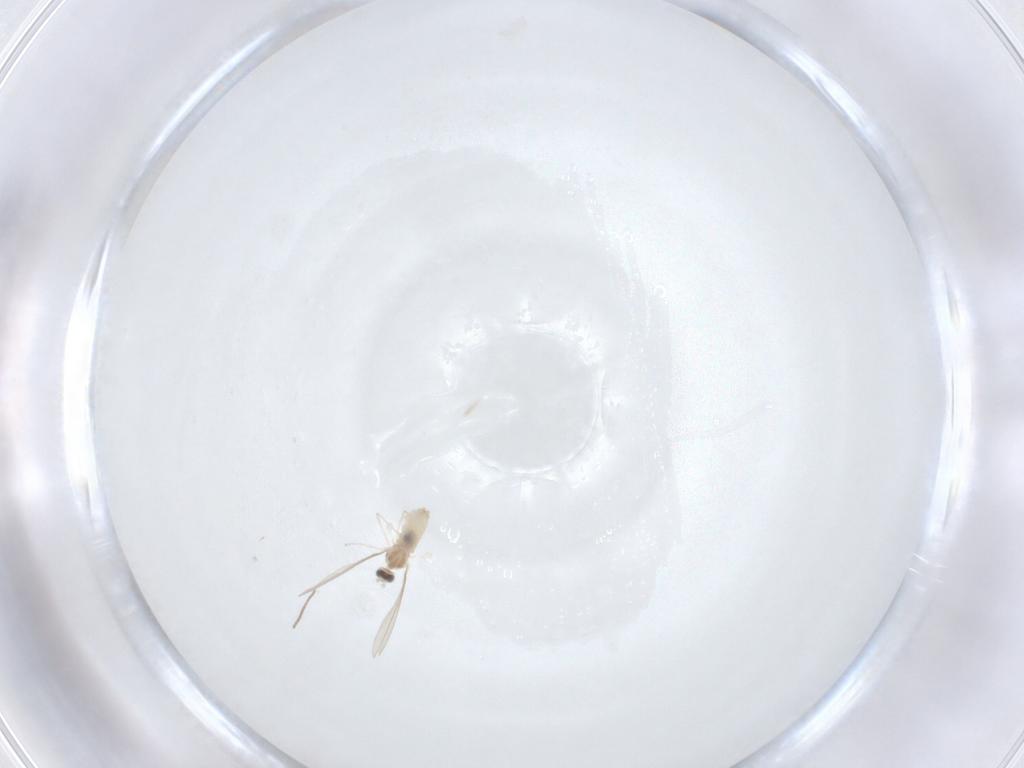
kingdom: Animalia
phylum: Arthropoda
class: Insecta
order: Diptera
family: Cecidomyiidae
